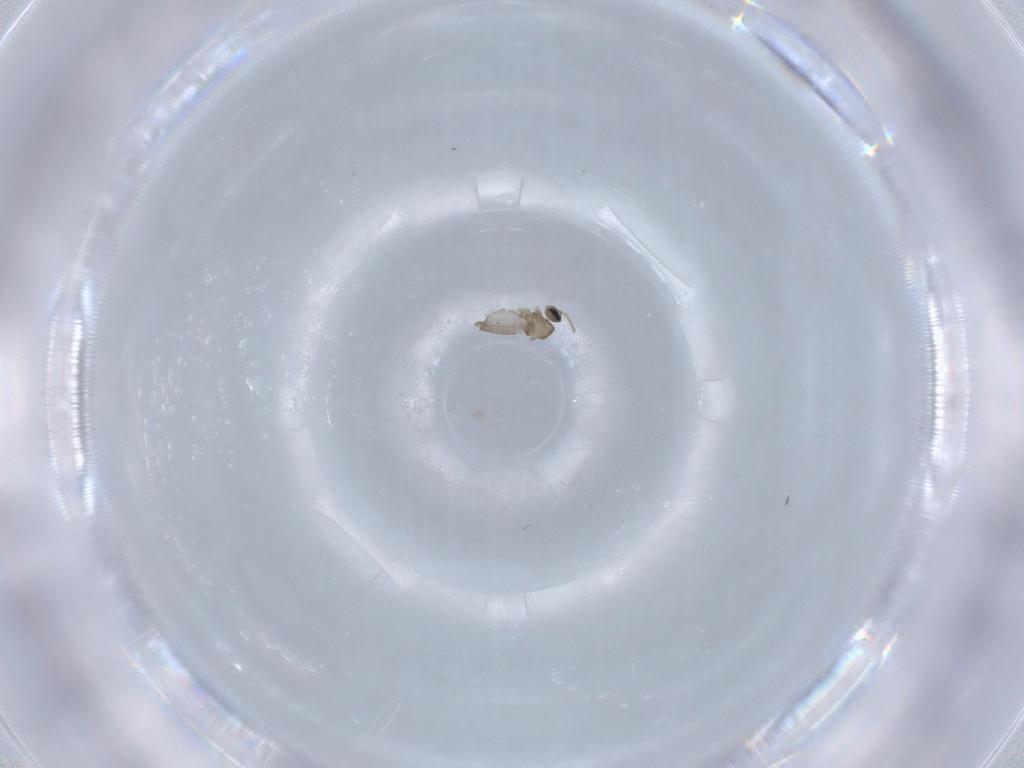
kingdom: Animalia
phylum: Arthropoda
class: Insecta
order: Diptera
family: Cecidomyiidae
